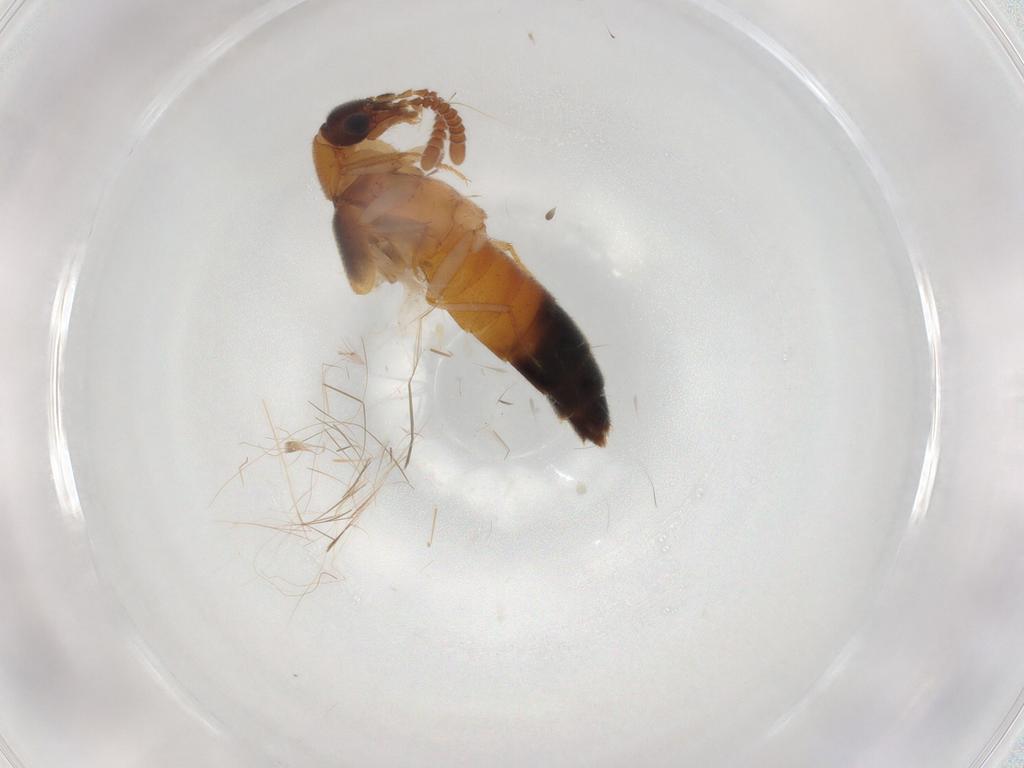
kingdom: Animalia
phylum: Arthropoda
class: Insecta
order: Coleoptera
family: Staphylinidae
